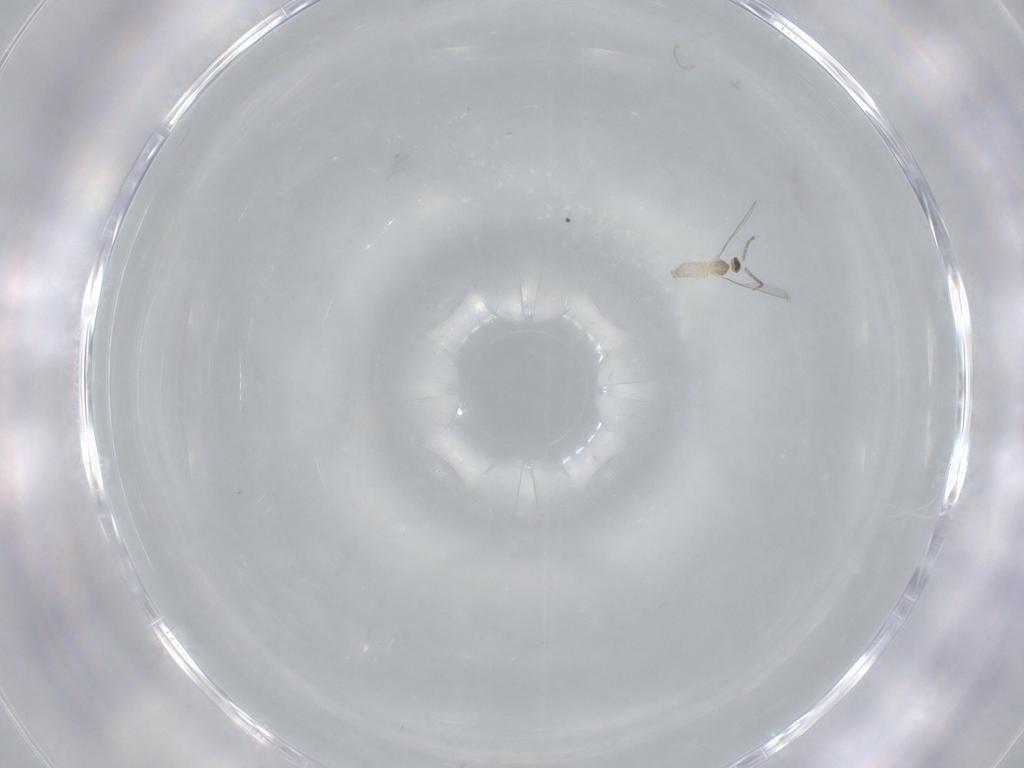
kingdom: Animalia
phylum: Arthropoda
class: Insecta
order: Diptera
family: Cecidomyiidae
